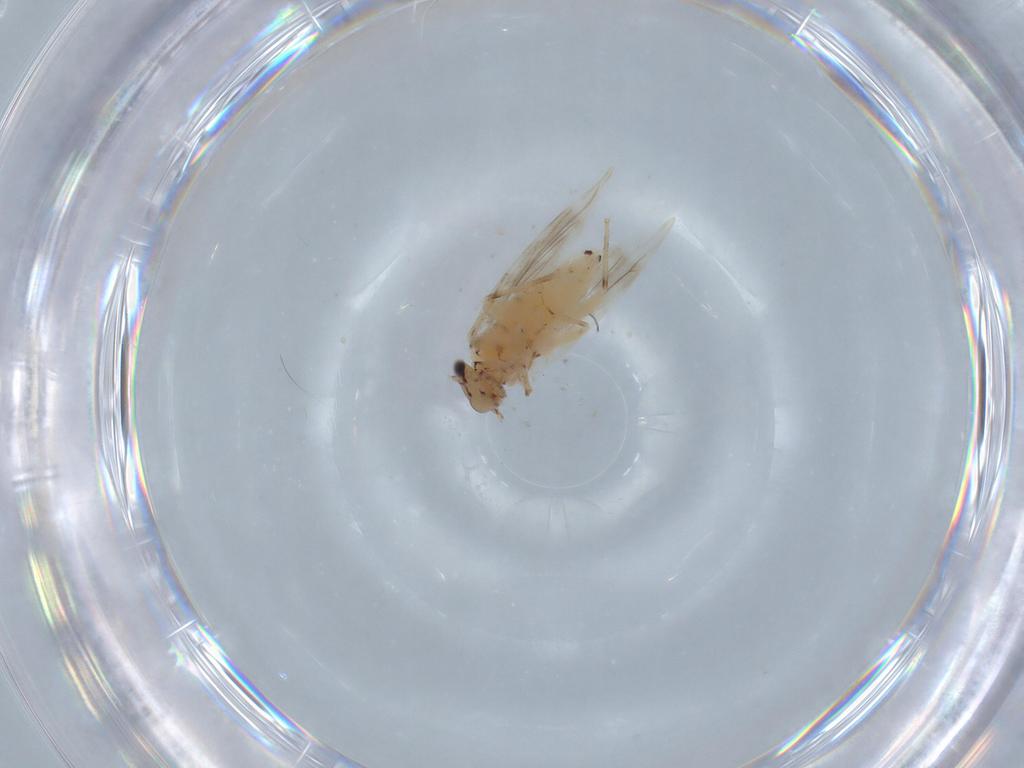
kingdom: Animalia
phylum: Arthropoda
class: Insecta
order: Psocodea
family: Lepidopsocidae
